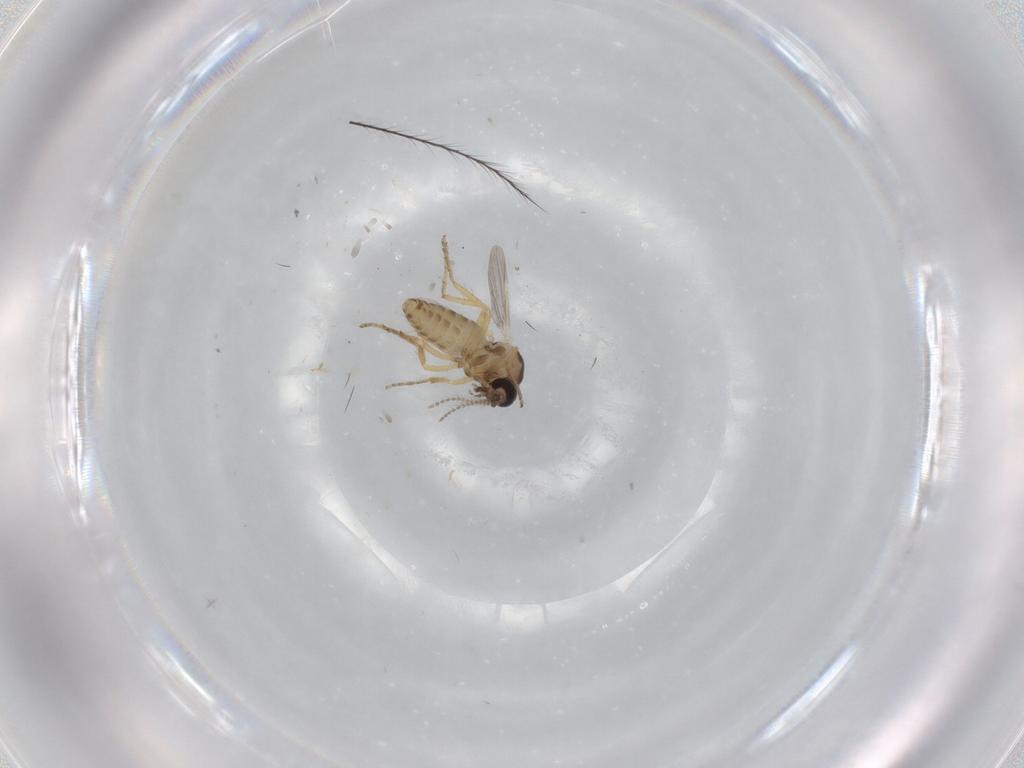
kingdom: Animalia
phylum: Arthropoda
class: Insecta
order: Diptera
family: Ceratopogonidae
